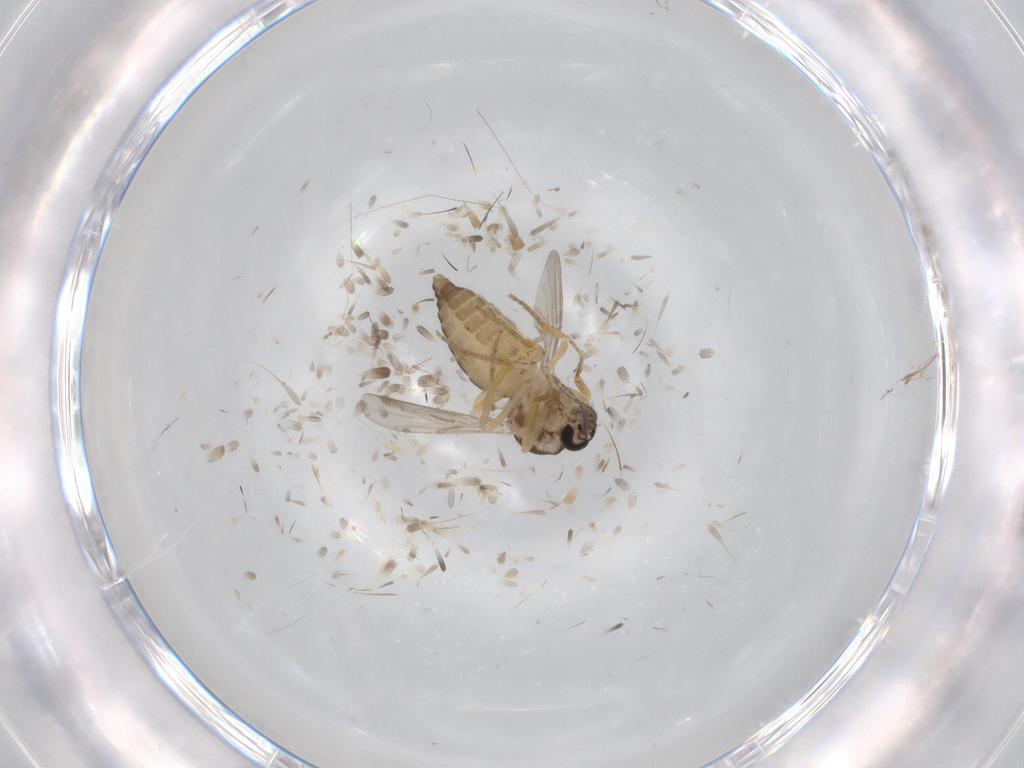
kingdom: Animalia
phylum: Arthropoda
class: Insecta
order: Diptera
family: Ceratopogonidae
